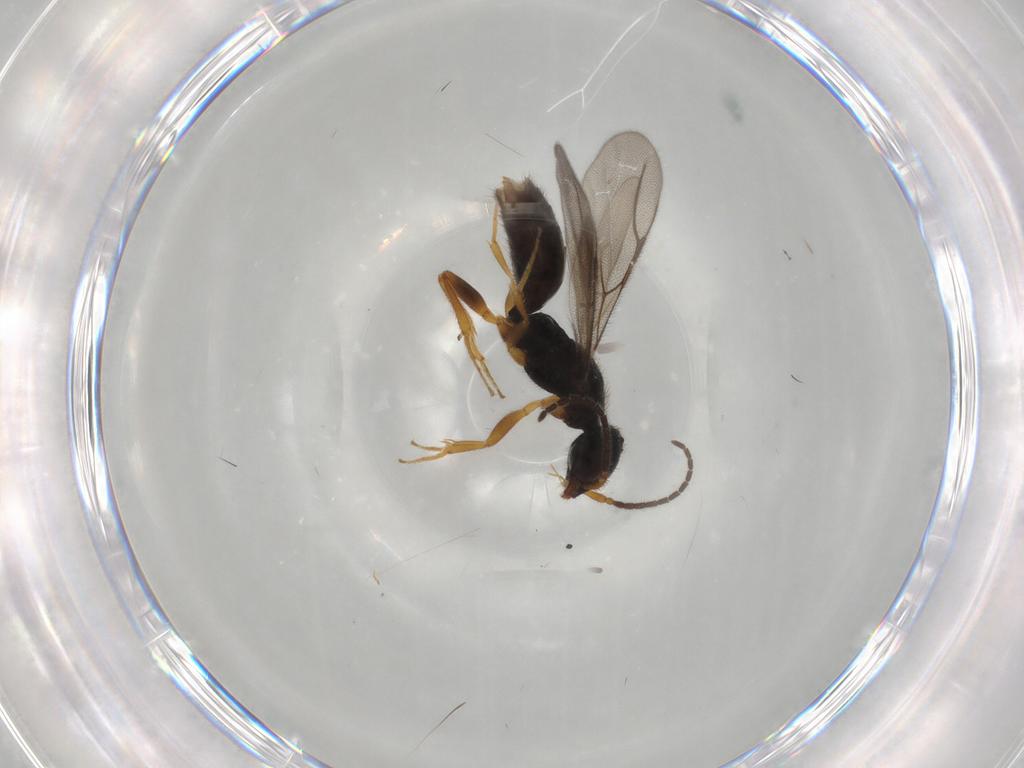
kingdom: Animalia
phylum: Arthropoda
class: Insecta
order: Hymenoptera
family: Bethylidae
